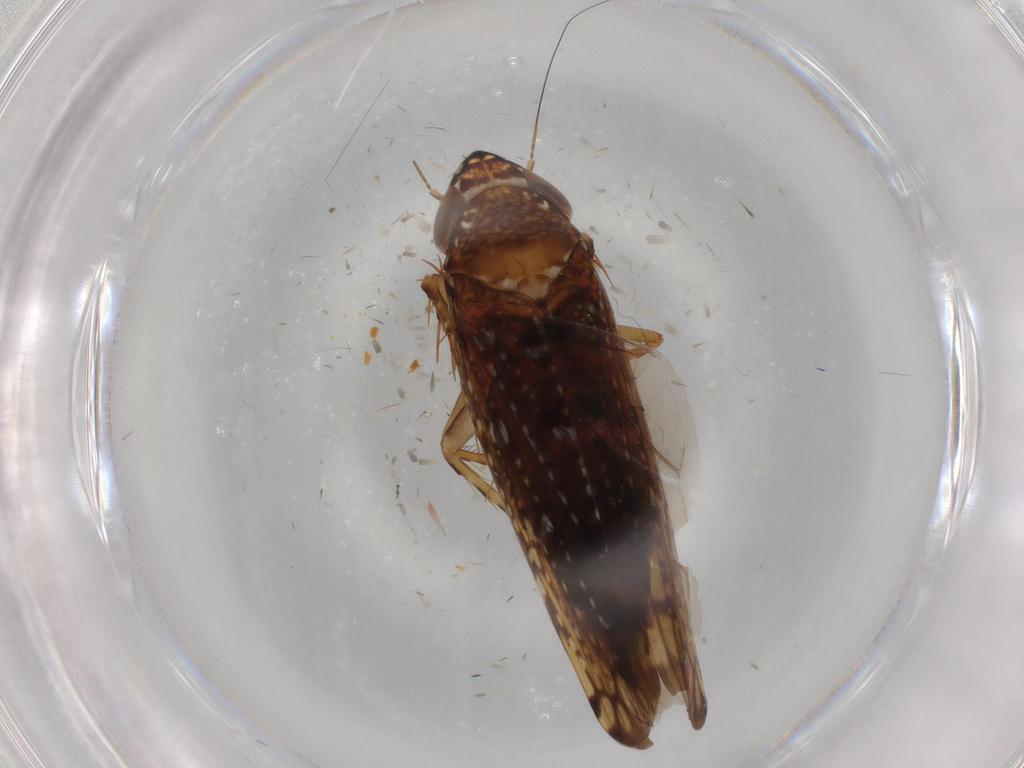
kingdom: Animalia
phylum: Arthropoda
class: Insecta
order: Hemiptera
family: Cicadellidae
